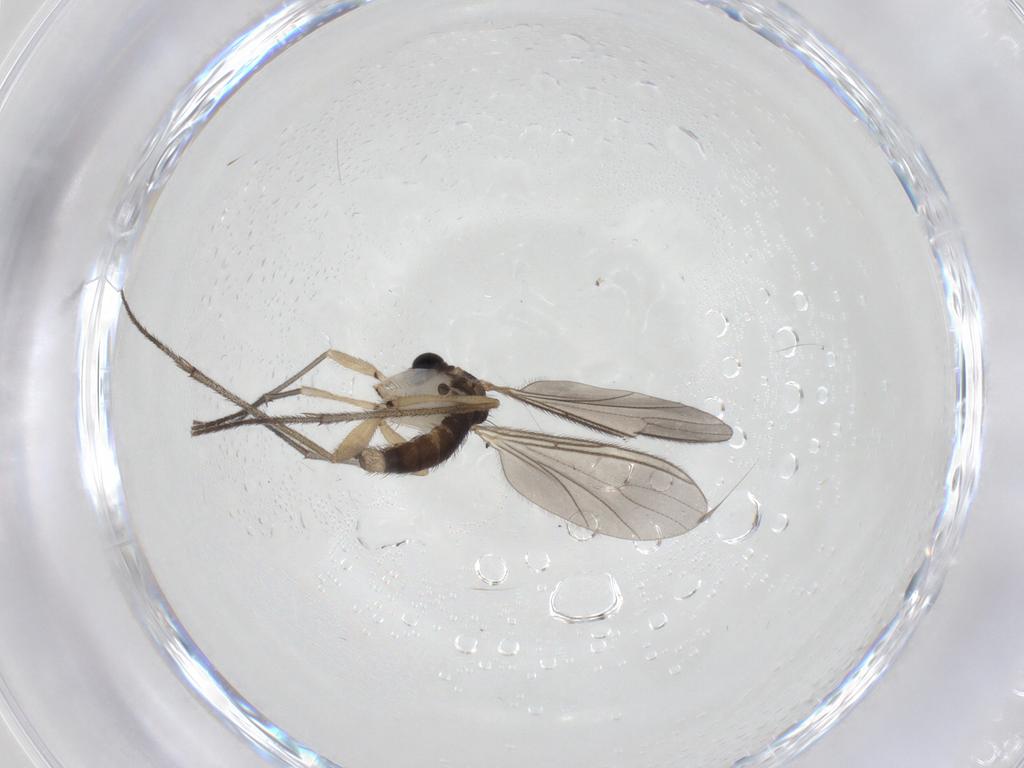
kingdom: Animalia
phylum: Arthropoda
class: Insecta
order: Diptera
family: Sciaridae
